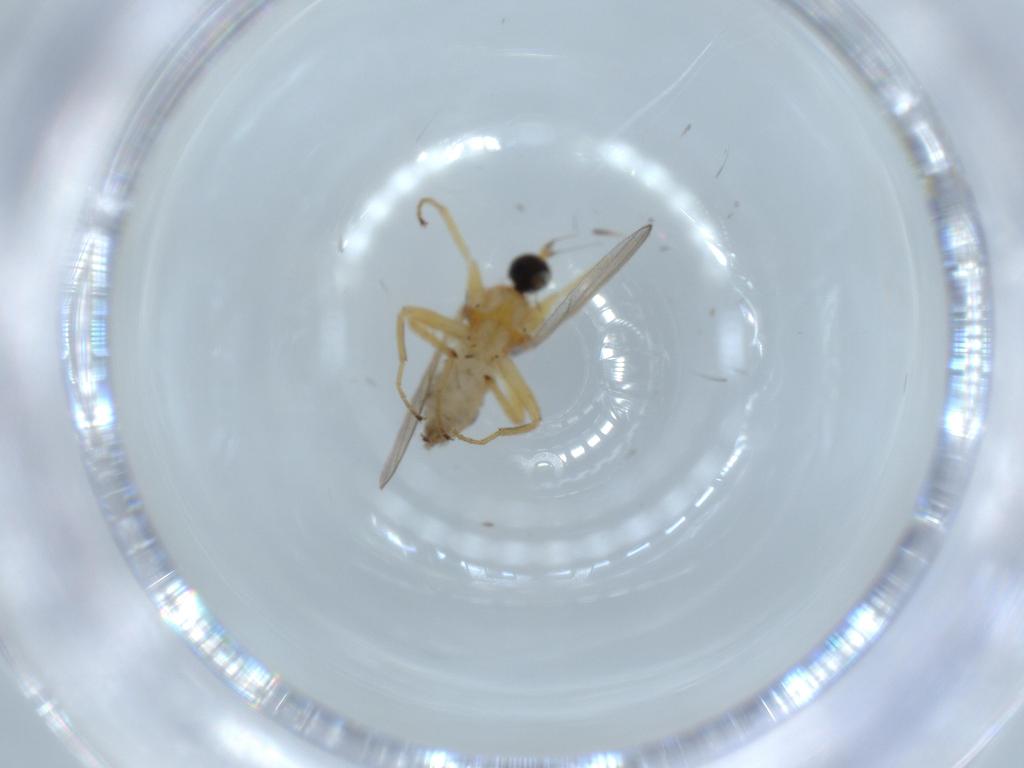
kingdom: Animalia
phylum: Arthropoda
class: Insecta
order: Diptera
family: Hybotidae
